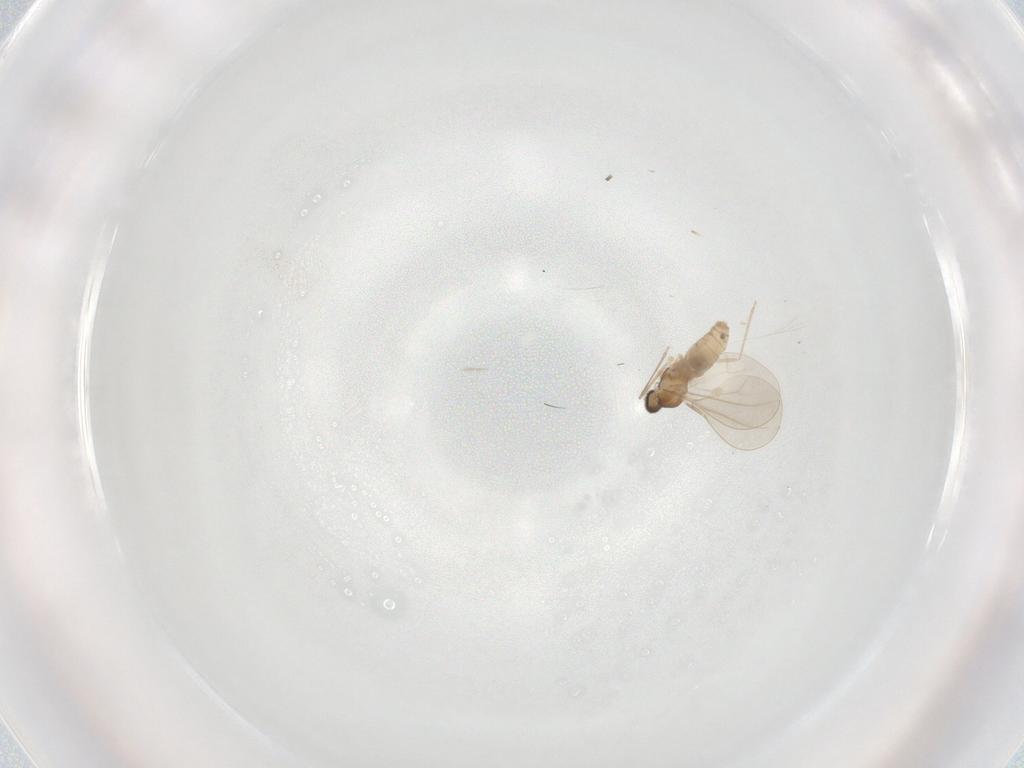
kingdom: Animalia
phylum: Arthropoda
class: Insecta
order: Diptera
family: Cecidomyiidae
